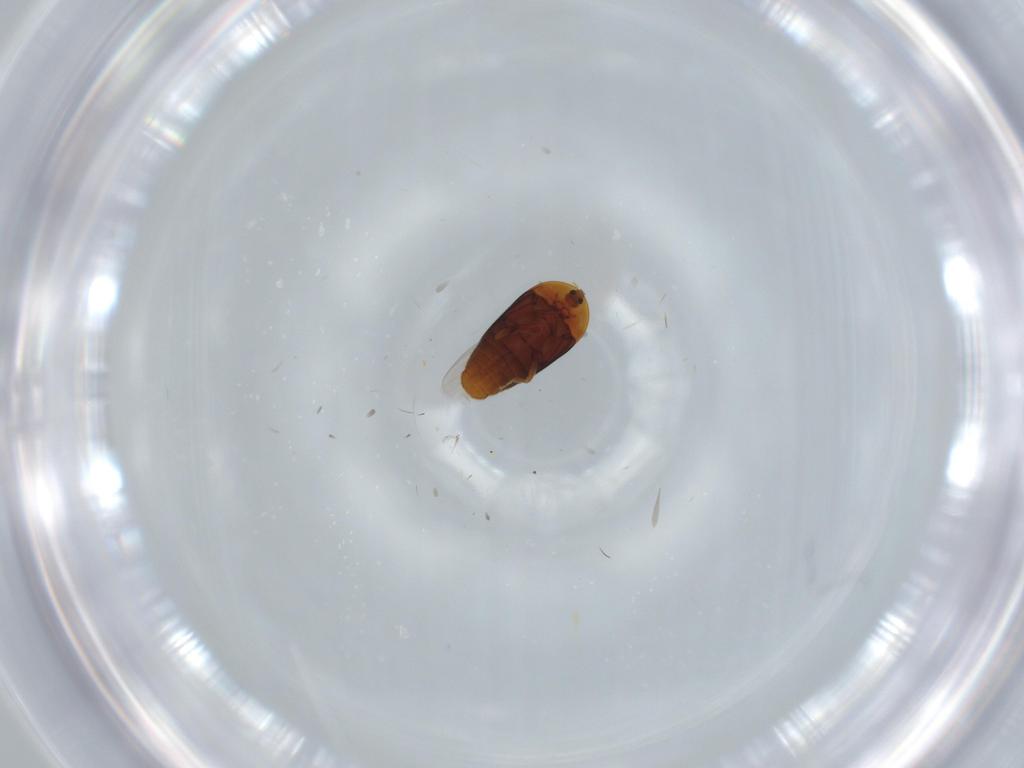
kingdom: Animalia
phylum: Arthropoda
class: Insecta
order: Coleoptera
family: Corylophidae
